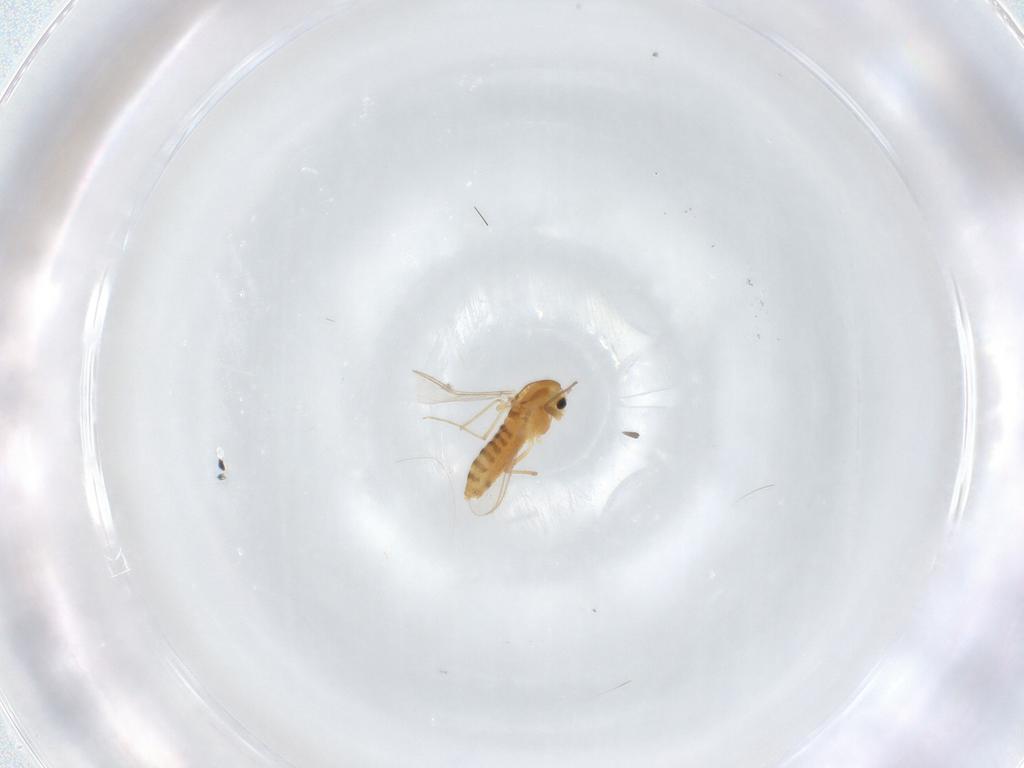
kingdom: Animalia
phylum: Arthropoda
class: Insecta
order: Diptera
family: Chironomidae
